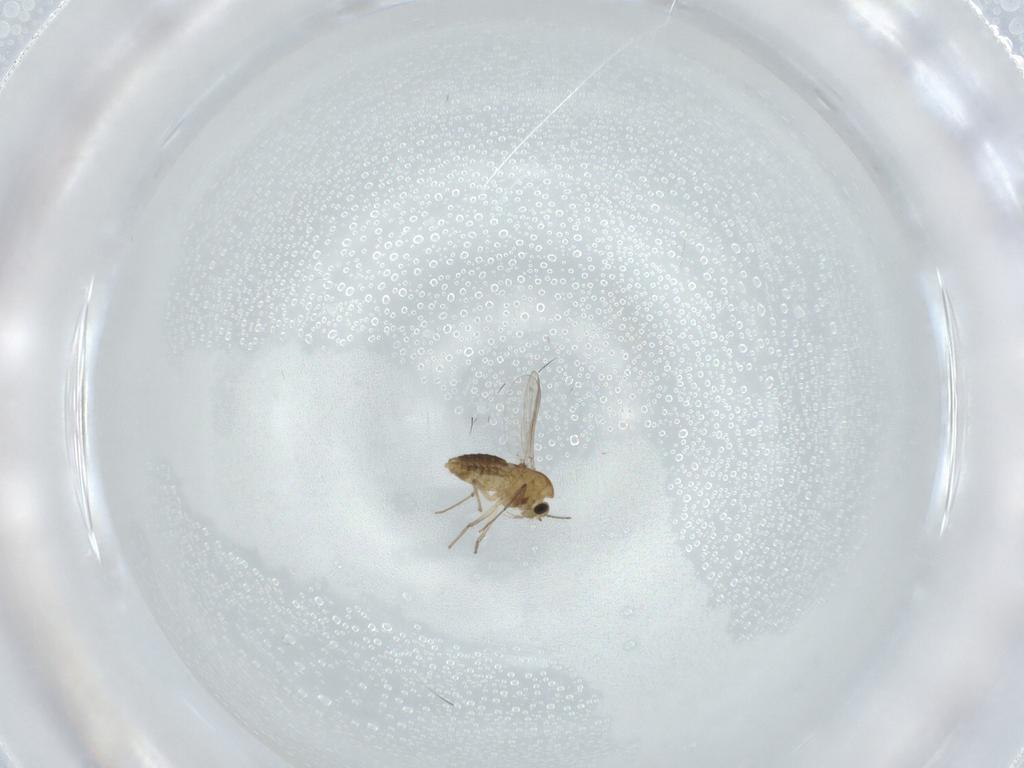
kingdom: Animalia
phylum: Arthropoda
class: Insecta
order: Diptera
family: Chironomidae
